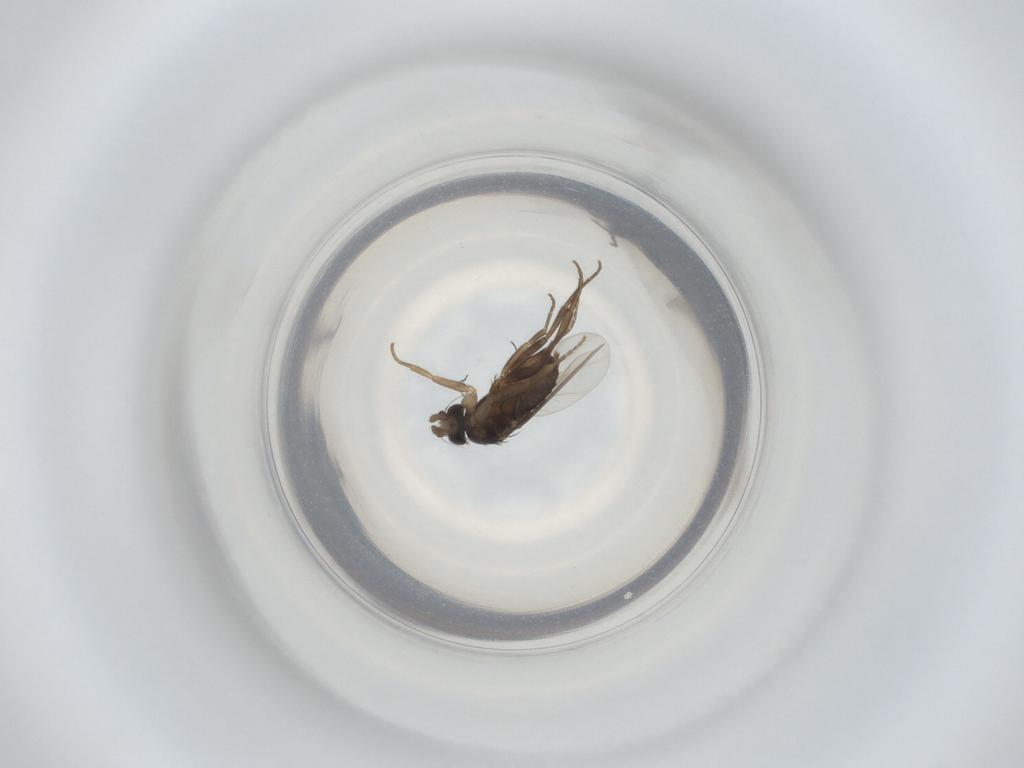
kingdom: Animalia
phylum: Arthropoda
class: Insecta
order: Diptera
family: Phoridae
